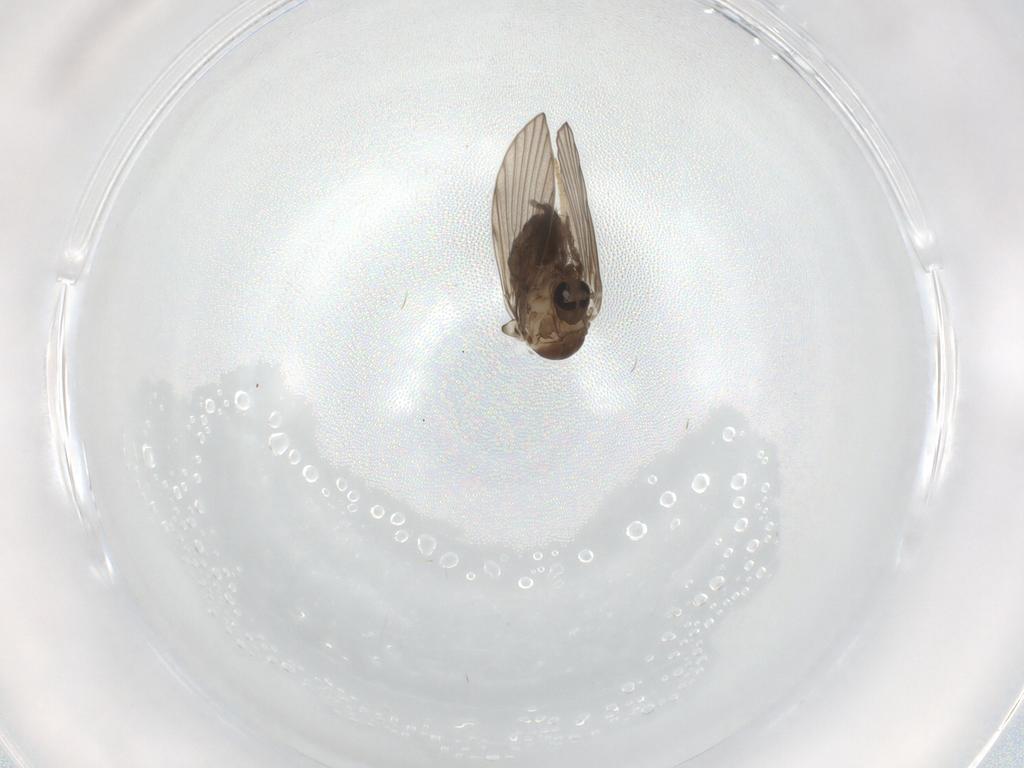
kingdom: Animalia
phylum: Arthropoda
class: Insecta
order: Diptera
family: Psychodidae
